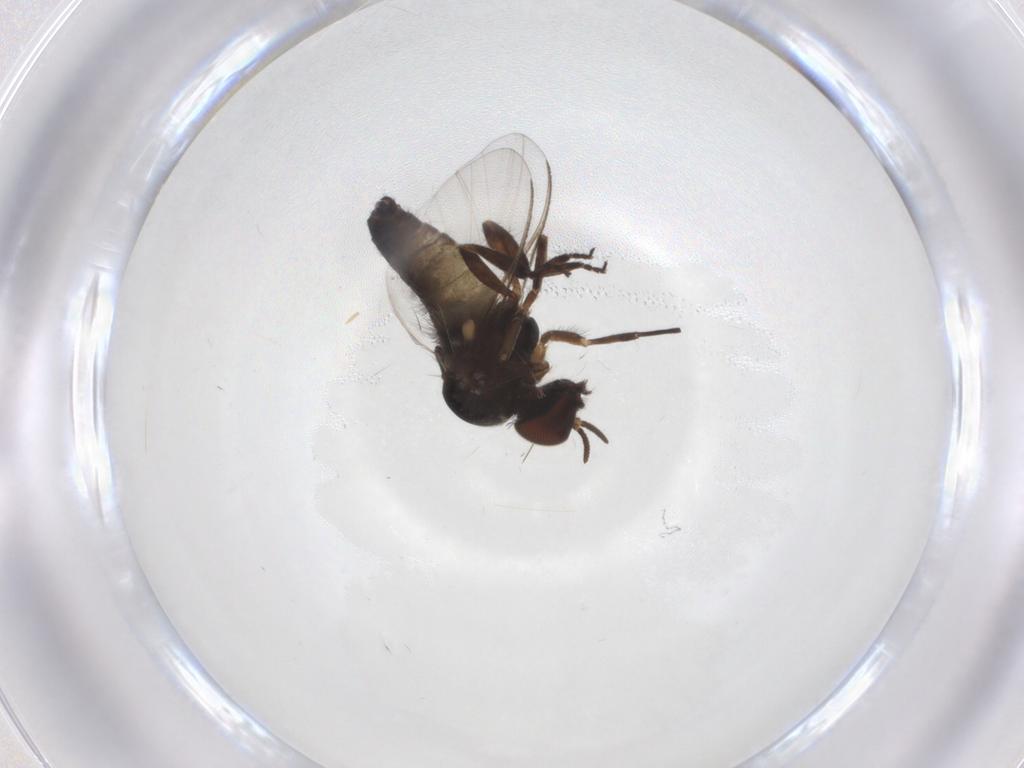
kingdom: Animalia
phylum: Arthropoda
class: Insecta
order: Diptera
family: Chironomidae
